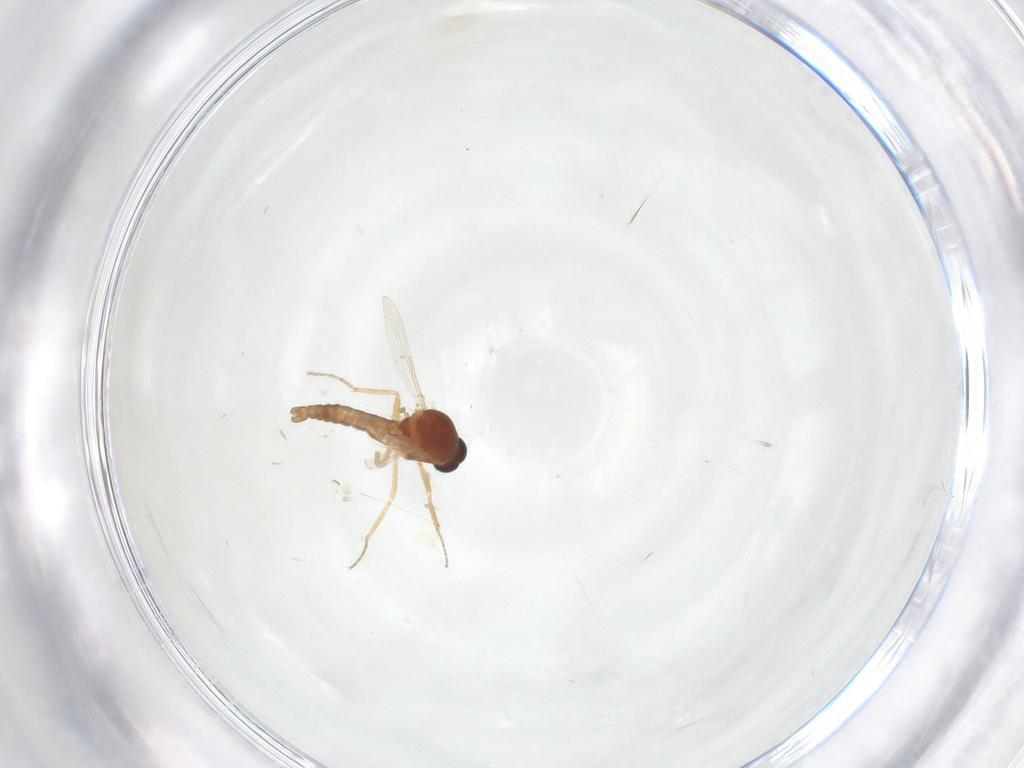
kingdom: Animalia
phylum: Arthropoda
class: Insecta
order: Diptera
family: Ceratopogonidae
